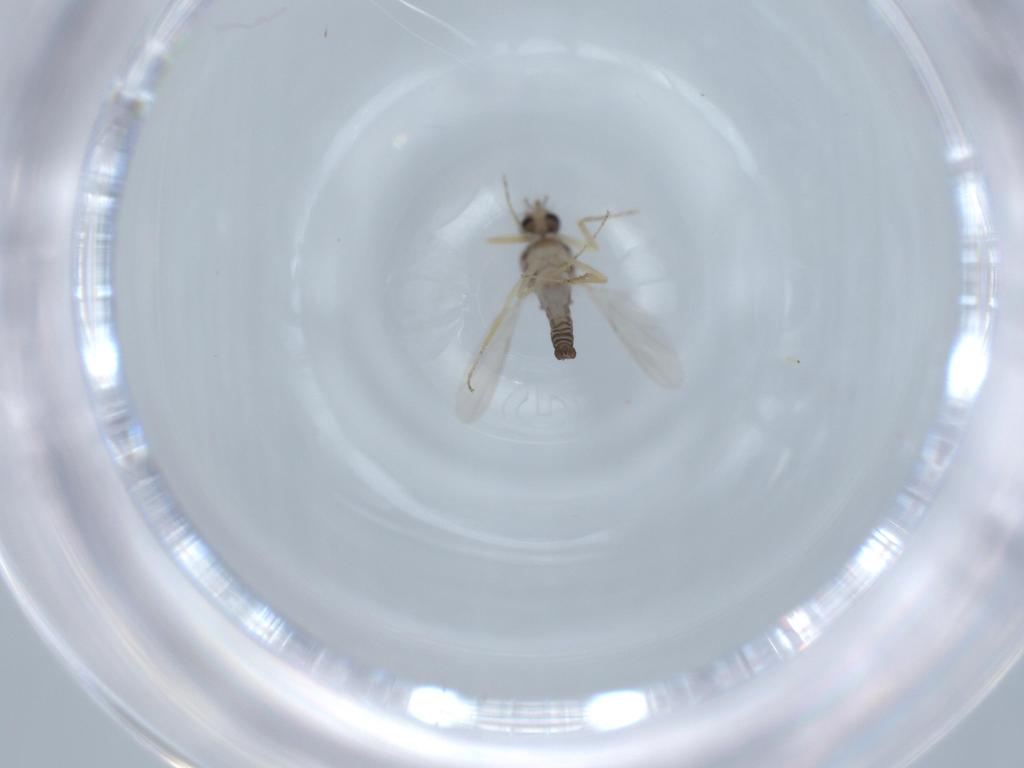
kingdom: Animalia
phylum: Arthropoda
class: Insecta
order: Diptera
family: Ceratopogonidae
